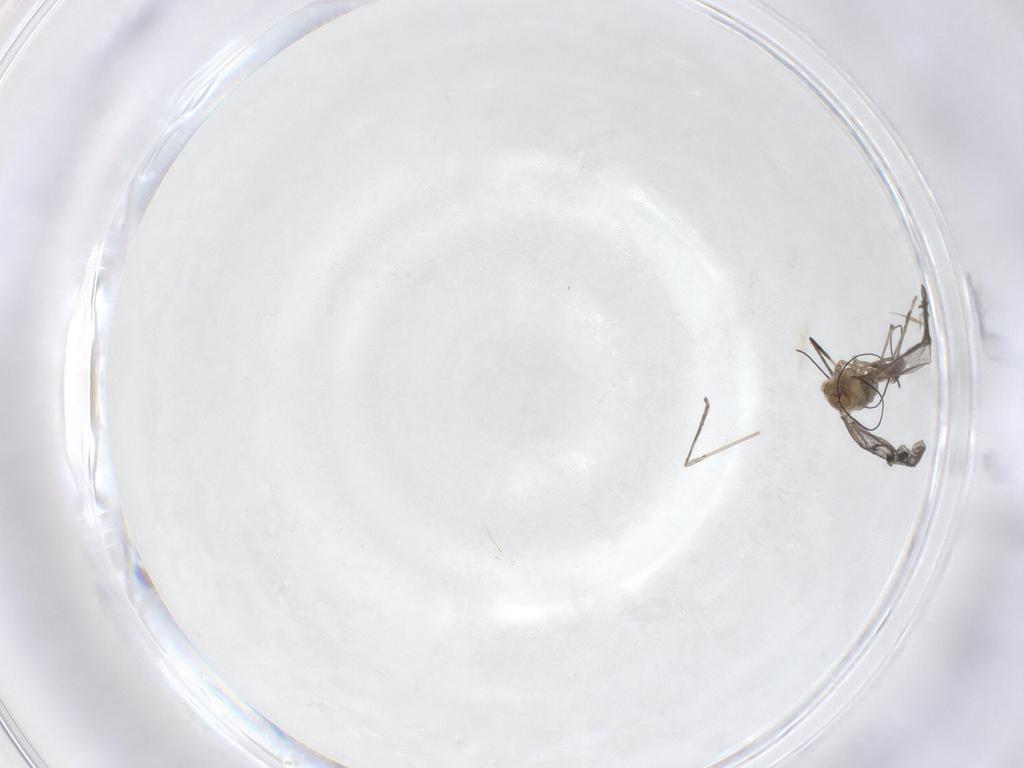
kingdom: Animalia
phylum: Arthropoda
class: Insecta
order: Diptera
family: Cecidomyiidae
